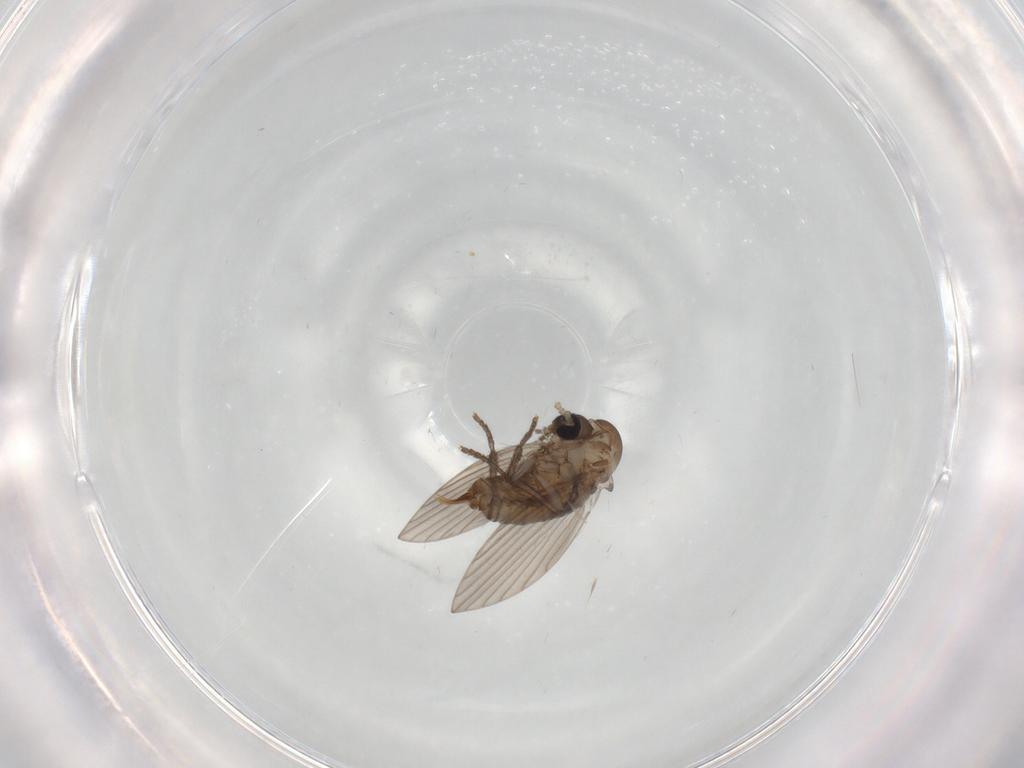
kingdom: Animalia
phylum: Arthropoda
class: Insecta
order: Diptera
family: Psychodidae
